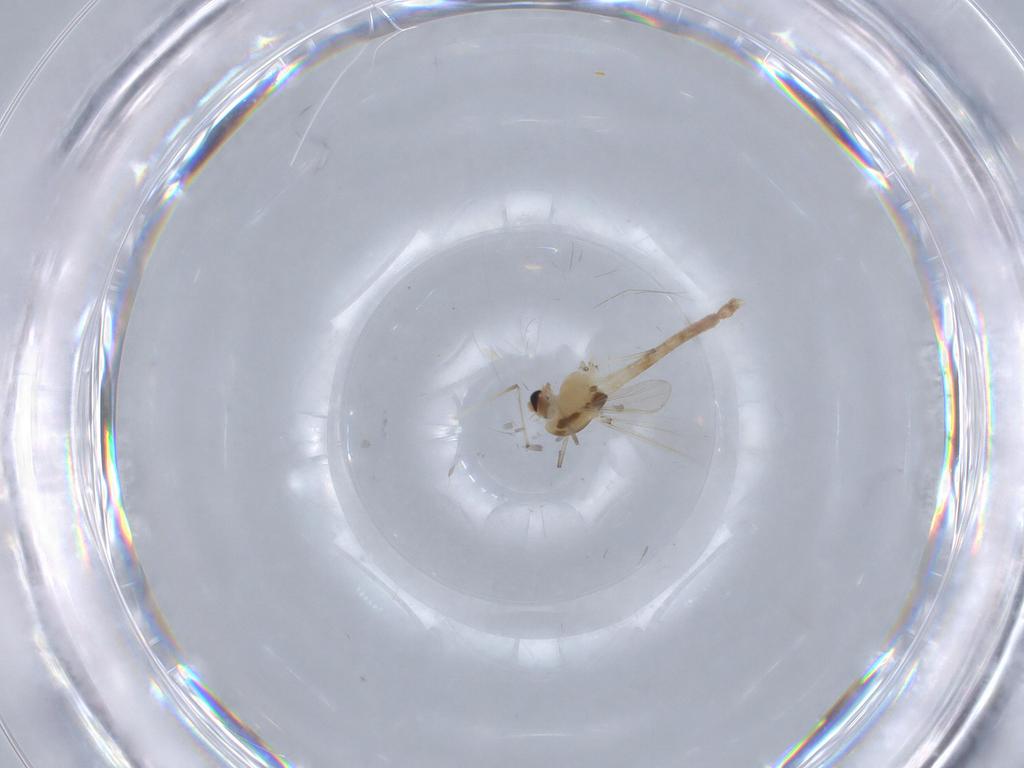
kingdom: Animalia
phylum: Arthropoda
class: Insecta
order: Diptera
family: Chironomidae
